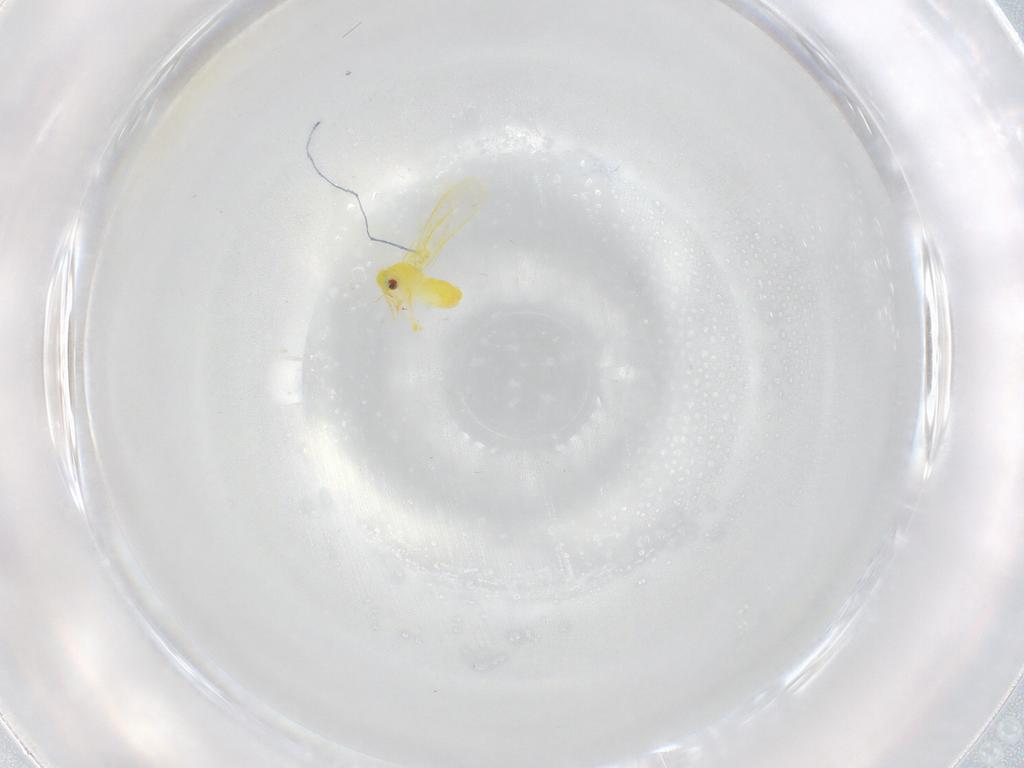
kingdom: Animalia
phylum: Arthropoda
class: Insecta
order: Hemiptera
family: Aleyrodidae
